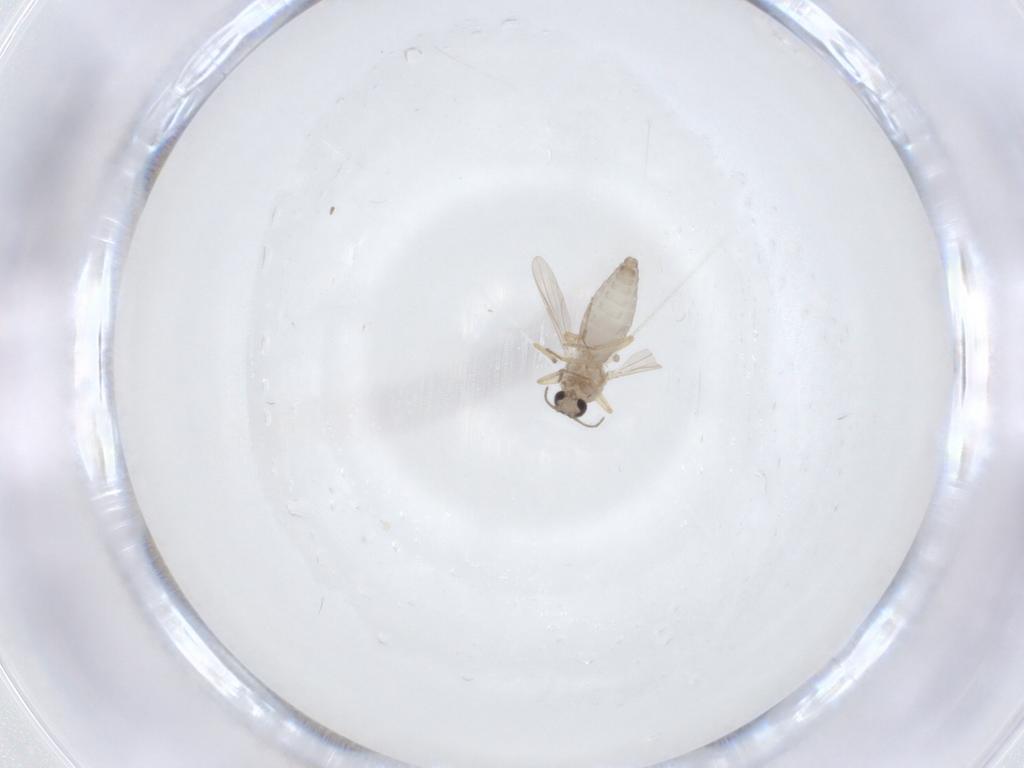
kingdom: Animalia
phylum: Arthropoda
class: Insecta
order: Diptera
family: Ceratopogonidae
